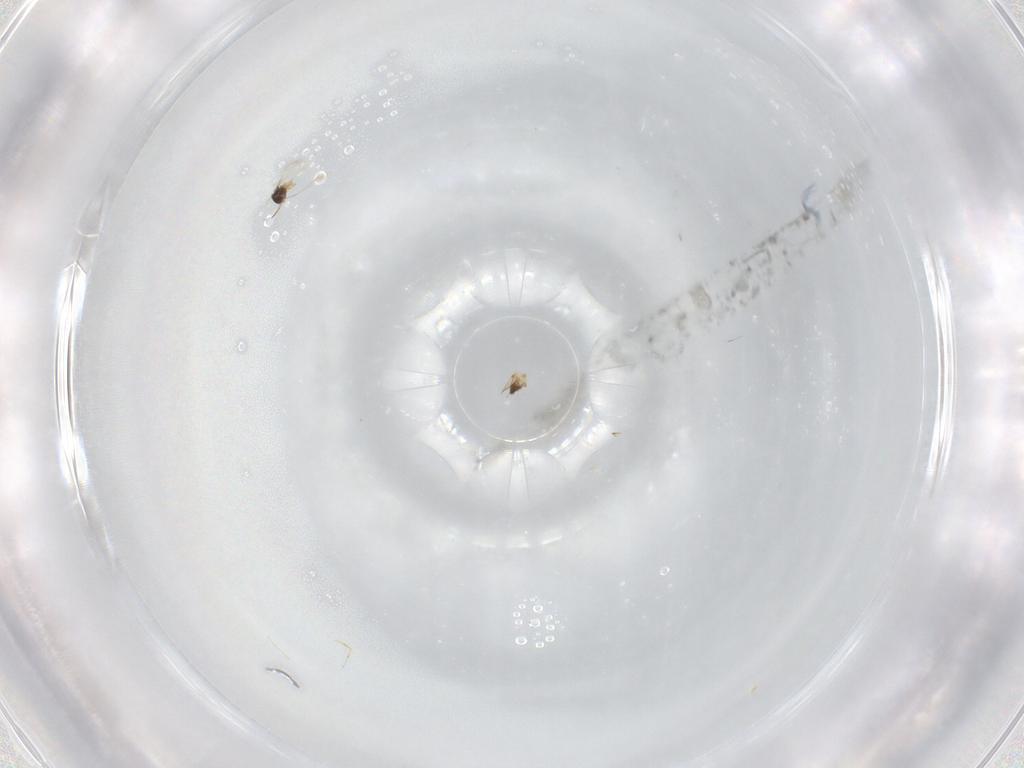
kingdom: Animalia
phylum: Arthropoda
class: Insecta
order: Hymenoptera
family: Mymaridae
